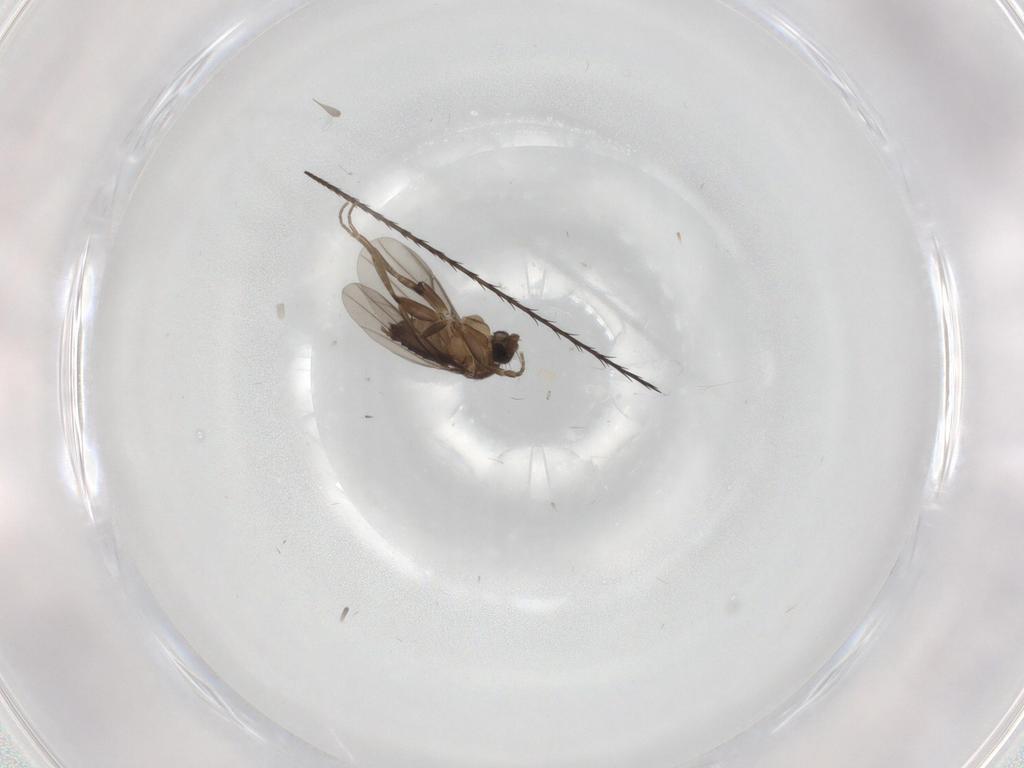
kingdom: Animalia
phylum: Arthropoda
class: Insecta
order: Diptera
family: Phoridae
